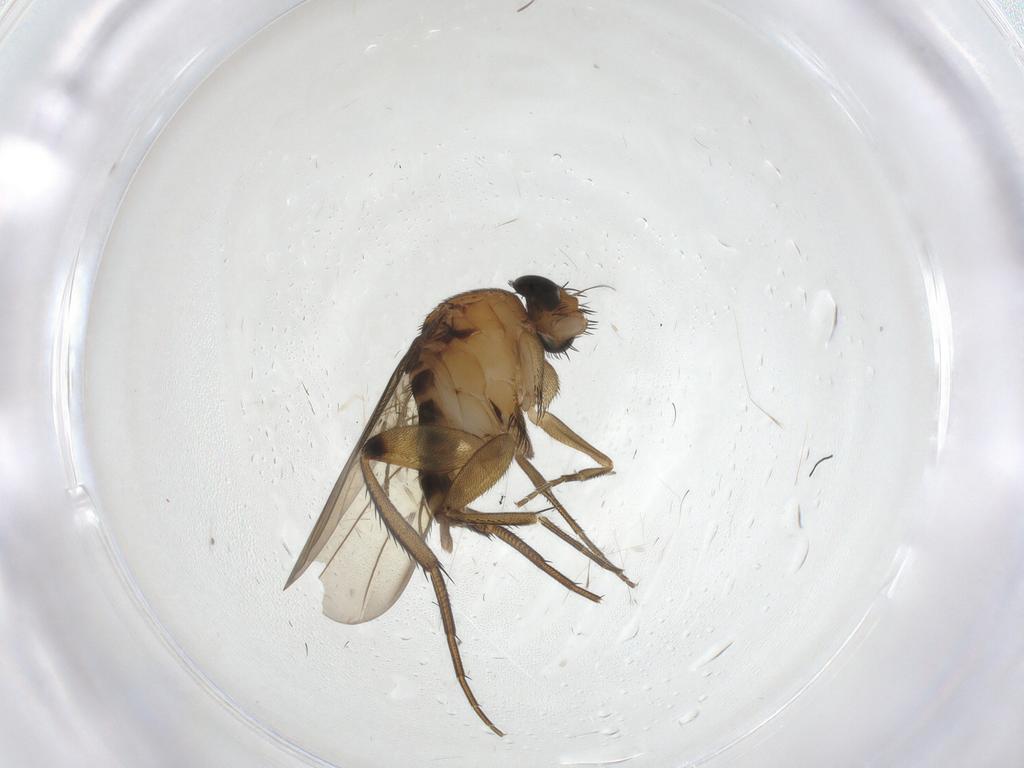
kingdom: Animalia
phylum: Arthropoda
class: Insecta
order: Diptera
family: Psychodidae
